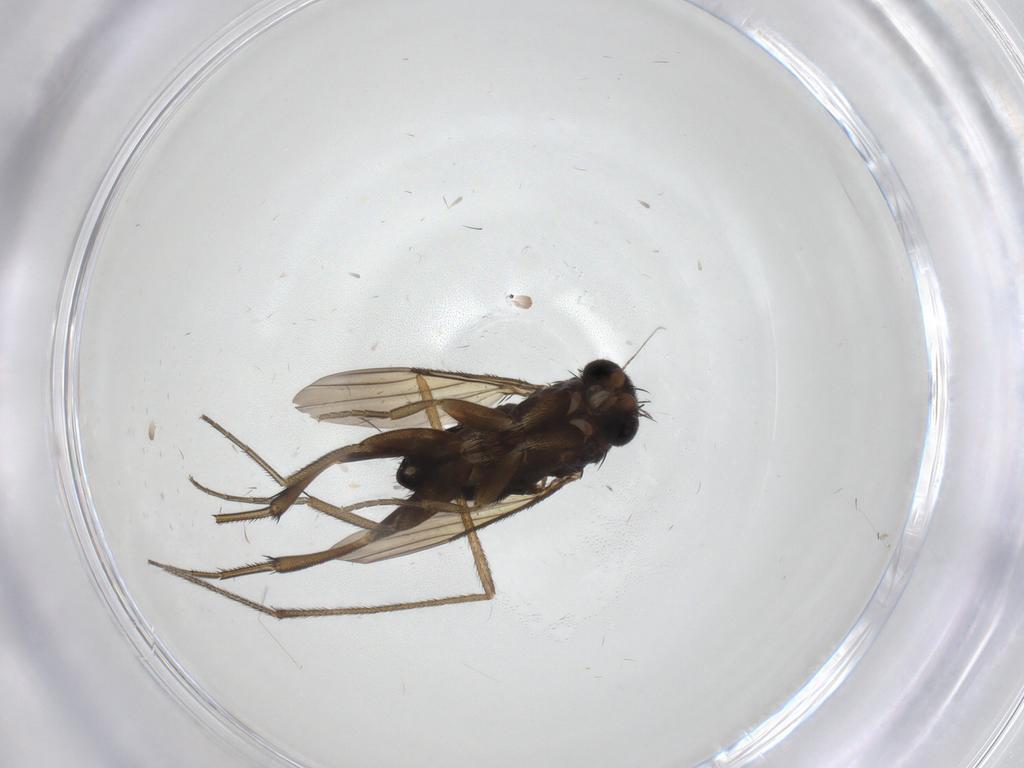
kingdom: Animalia
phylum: Arthropoda
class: Insecta
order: Diptera
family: Phoridae
